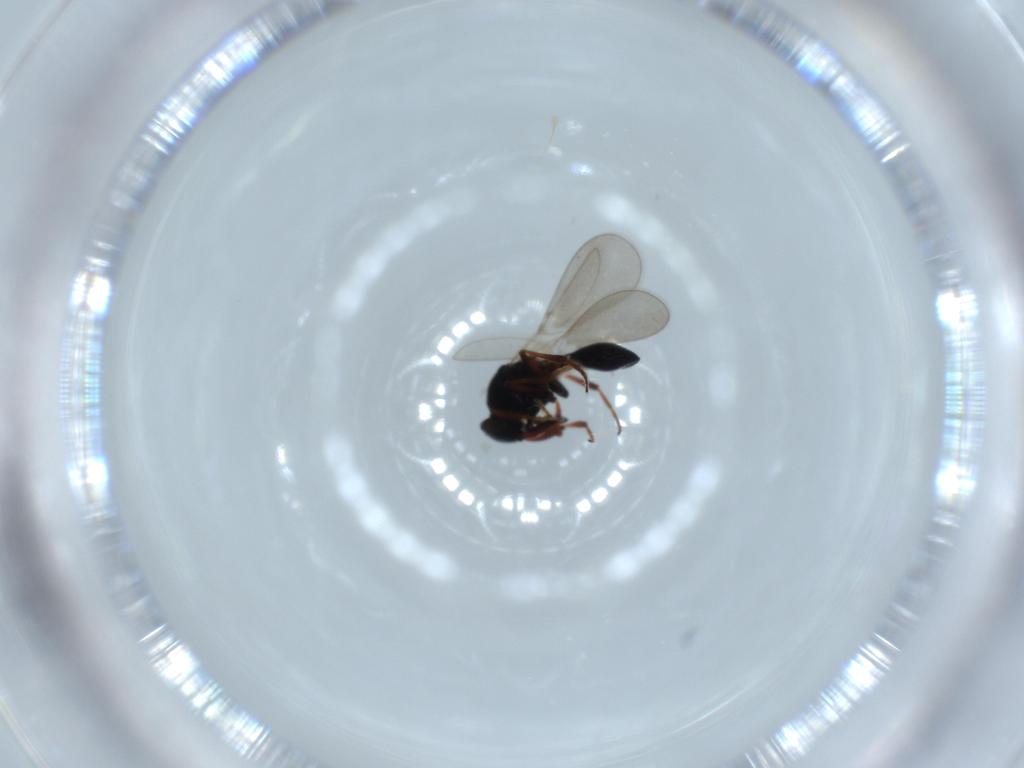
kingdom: Animalia
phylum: Arthropoda
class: Insecta
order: Hymenoptera
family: Platygastridae
